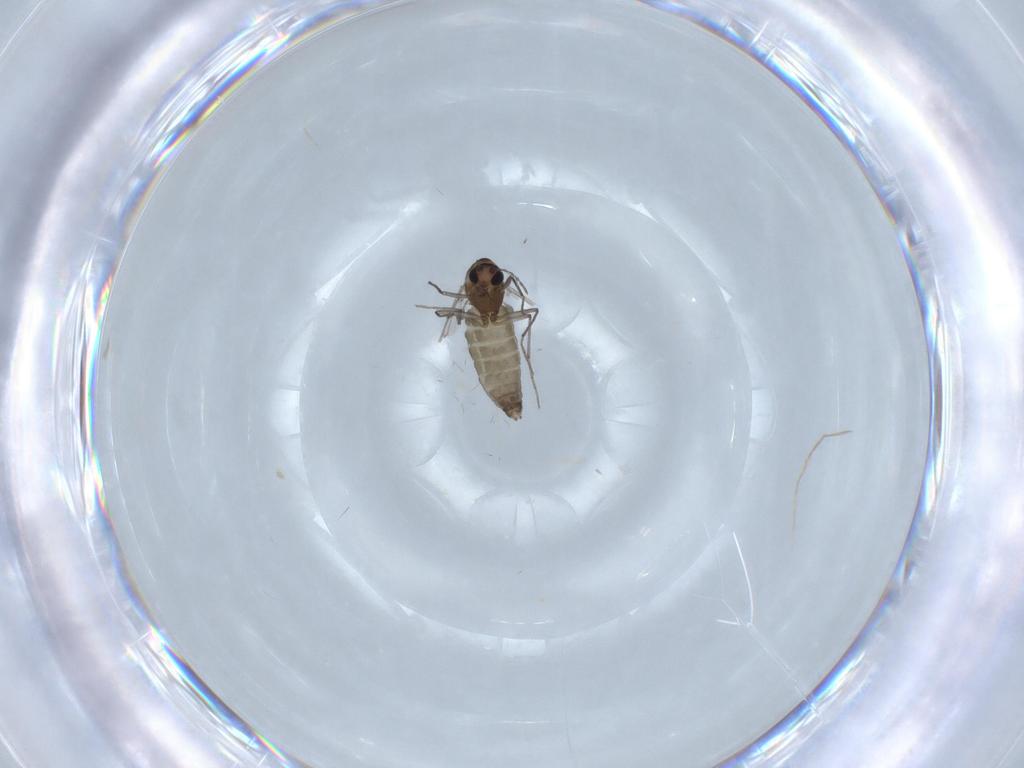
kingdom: Animalia
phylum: Arthropoda
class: Insecta
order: Diptera
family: Chironomidae
